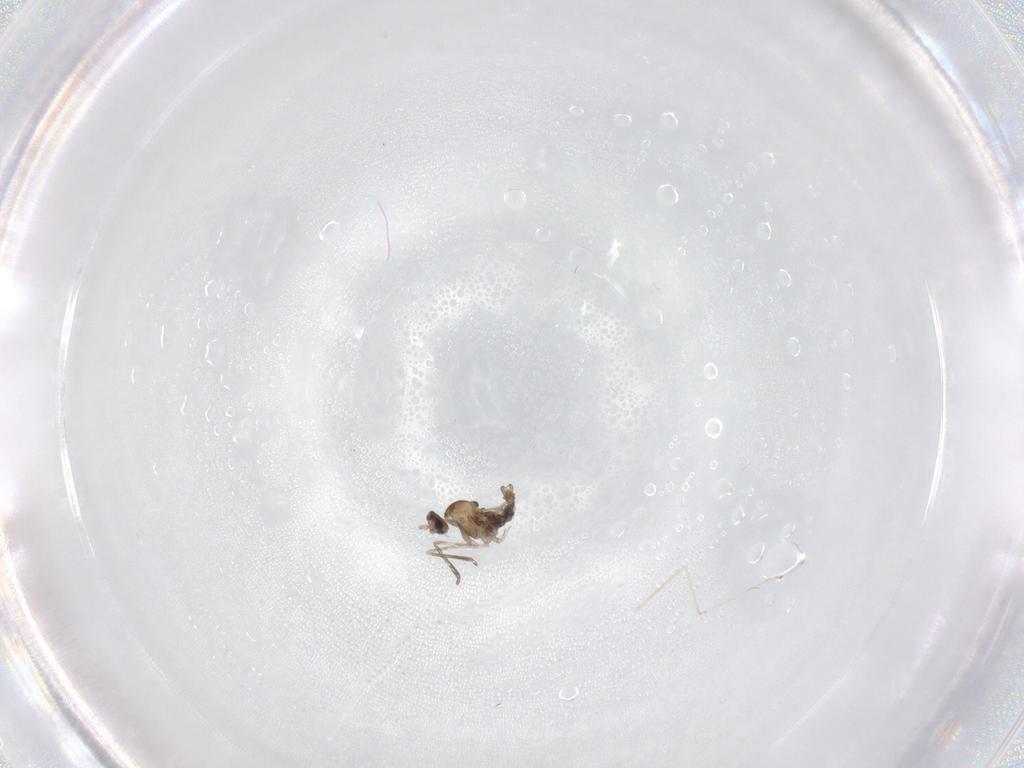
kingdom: Animalia
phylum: Arthropoda
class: Insecta
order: Diptera
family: Cecidomyiidae
